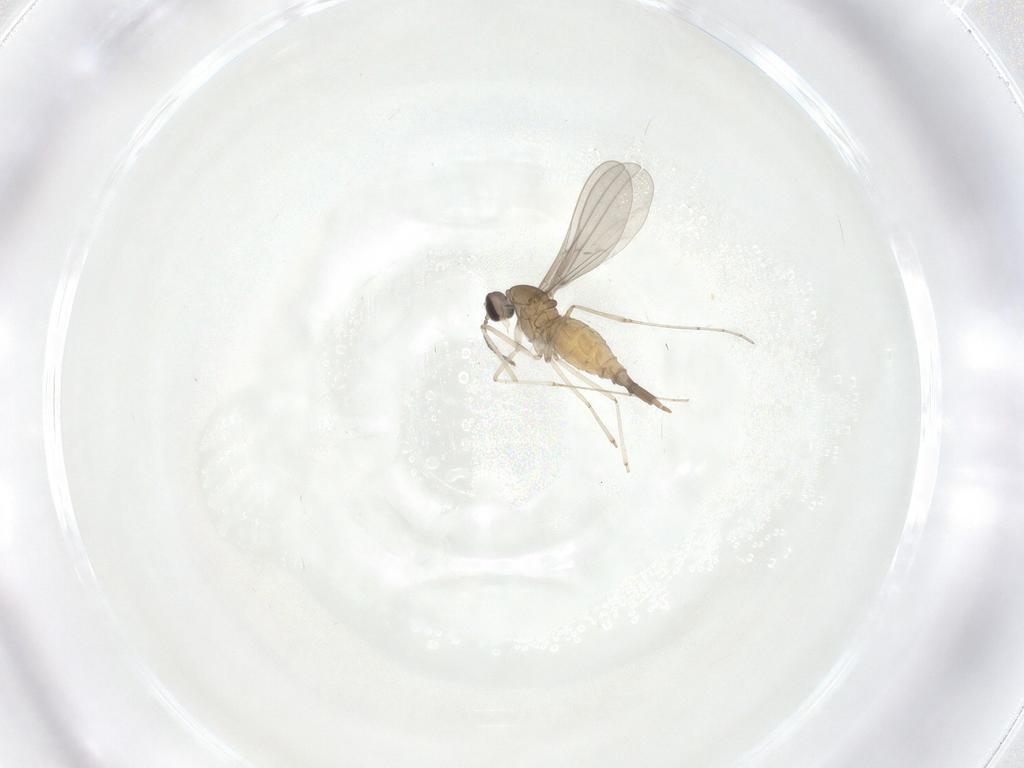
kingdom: Animalia
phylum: Arthropoda
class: Insecta
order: Diptera
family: Cecidomyiidae
